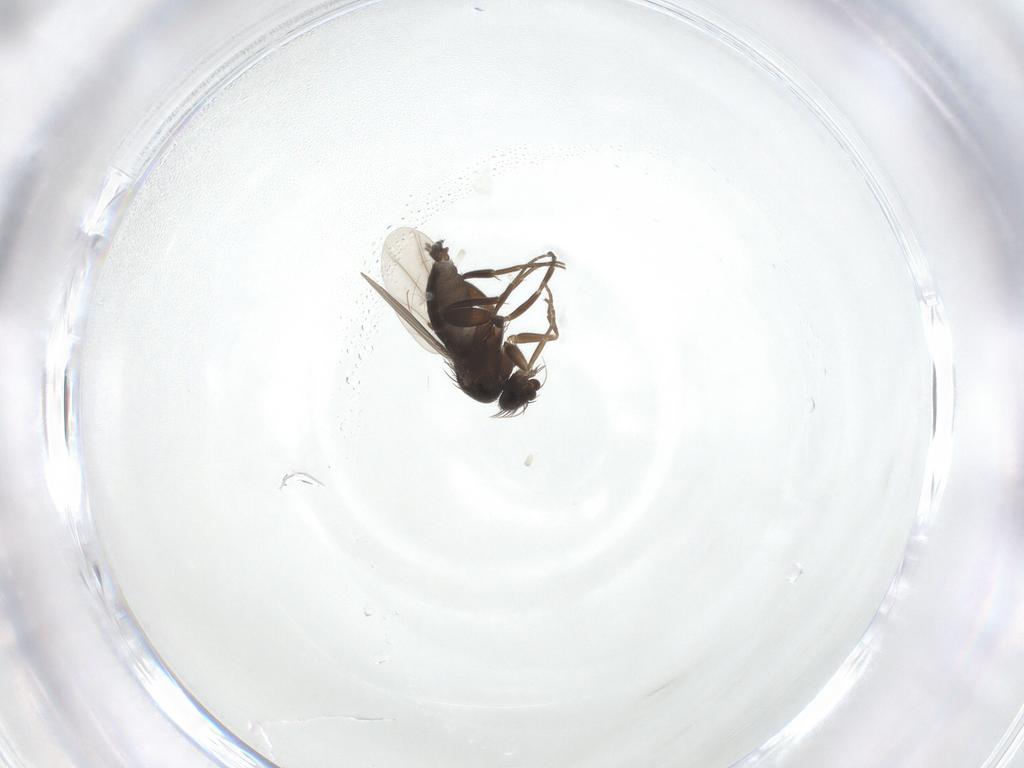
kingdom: Animalia
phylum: Arthropoda
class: Insecta
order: Diptera
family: Phoridae
